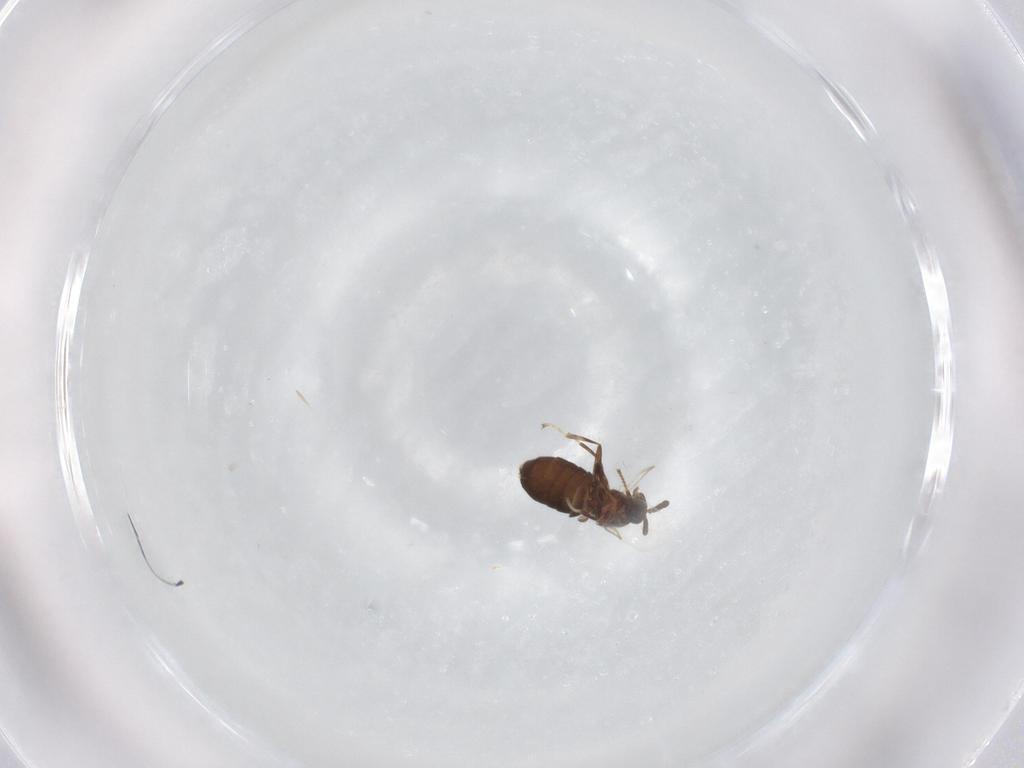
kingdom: Animalia
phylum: Arthropoda
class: Insecta
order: Diptera
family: Scatopsidae
